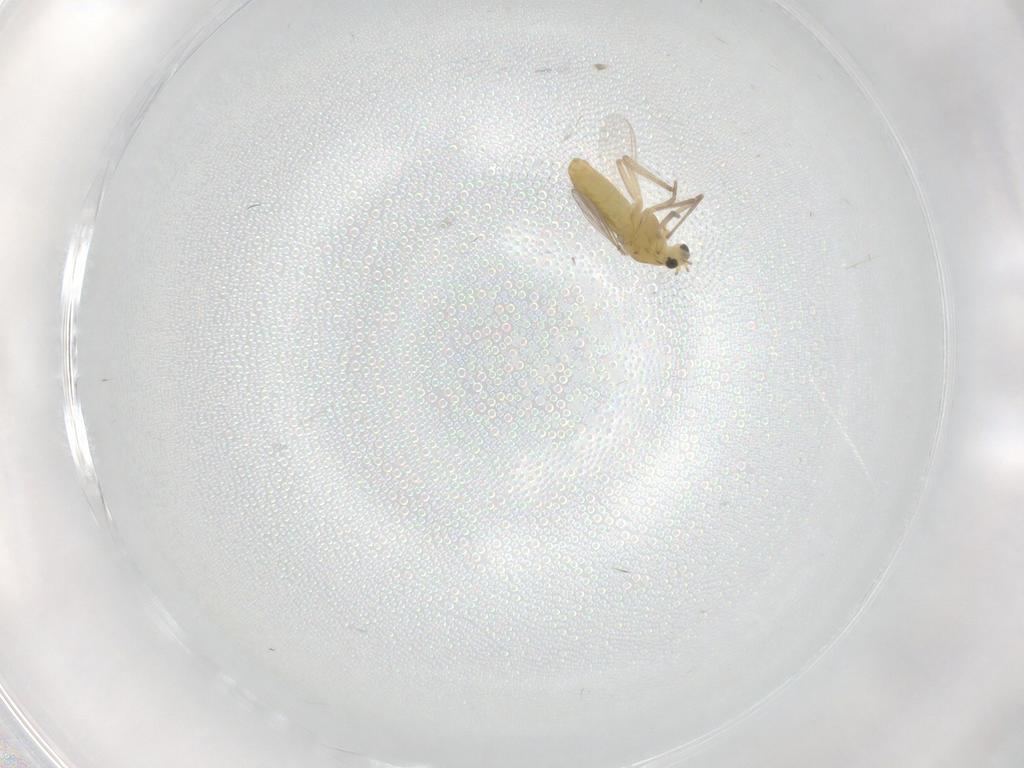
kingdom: Animalia
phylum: Arthropoda
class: Insecta
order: Diptera
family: Chironomidae
